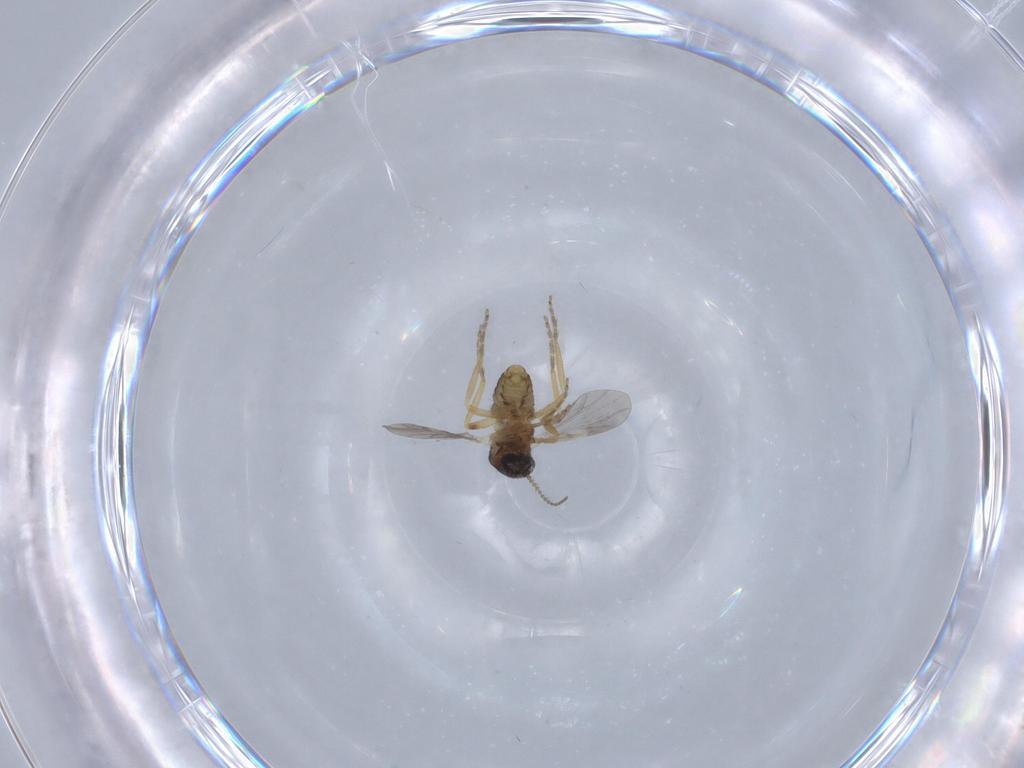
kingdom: Animalia
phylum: Arthropoda
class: Insecta
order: Diptera
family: Ceratopogonidae
